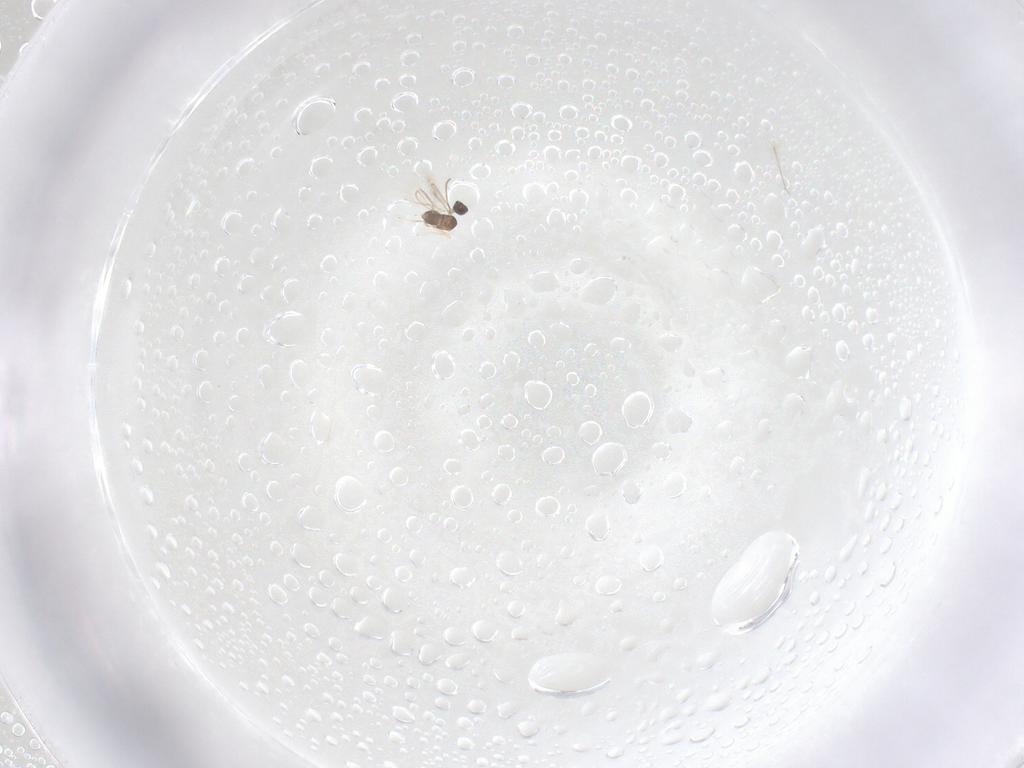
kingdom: Animalia
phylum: Arthropoda
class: Insecta
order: Hymenoptera
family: Mymaridae
